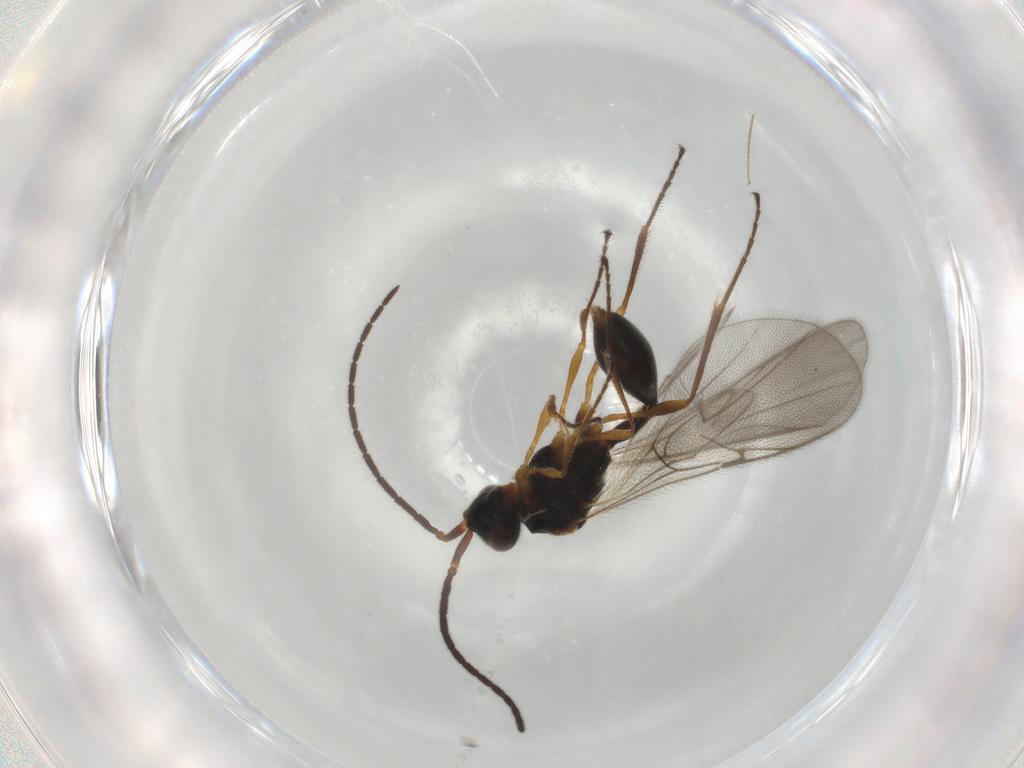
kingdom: Animalia
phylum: Arthropoda
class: Insecta
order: Hymenoptera
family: Diapriidae
